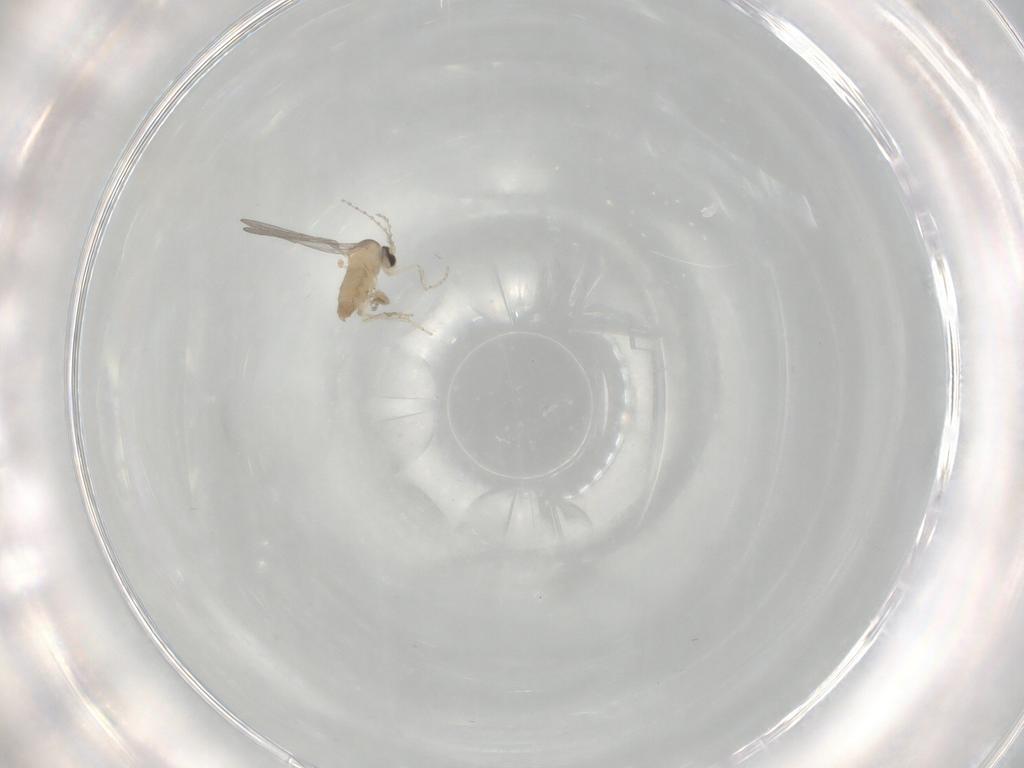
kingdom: Animalia
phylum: Arthropoda
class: Insecta
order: Diptera
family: Cecidomyiidae
